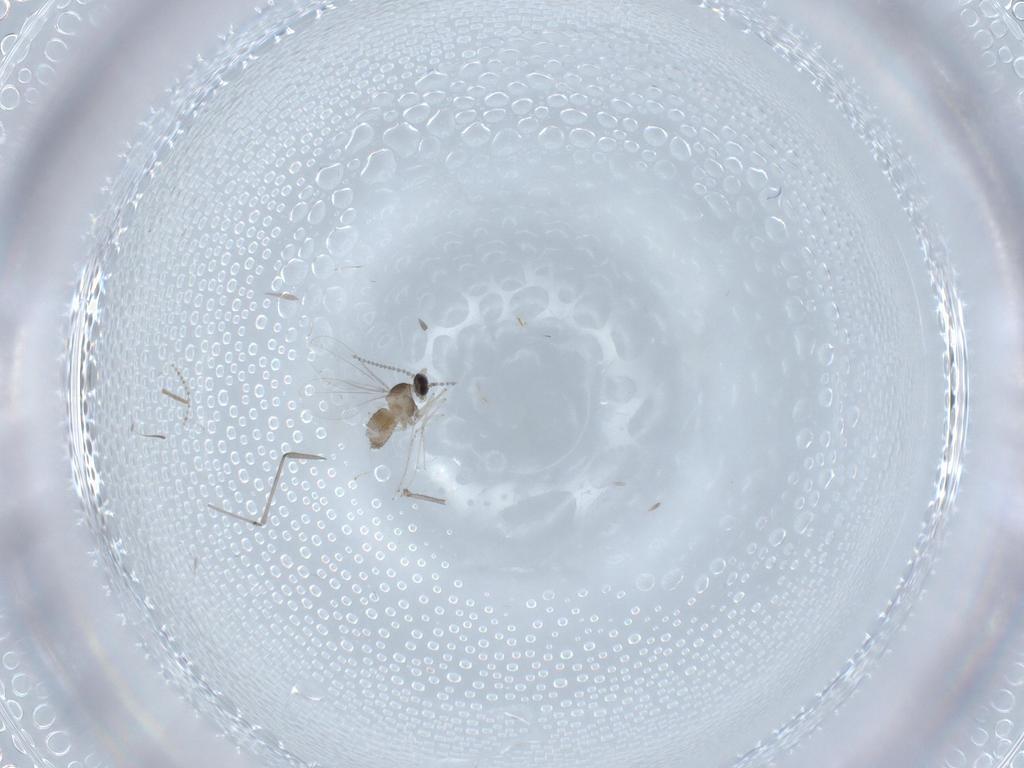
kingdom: Animalia
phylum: Arthropoda
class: Insecta
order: Diptera
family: Cecidomyiidae
